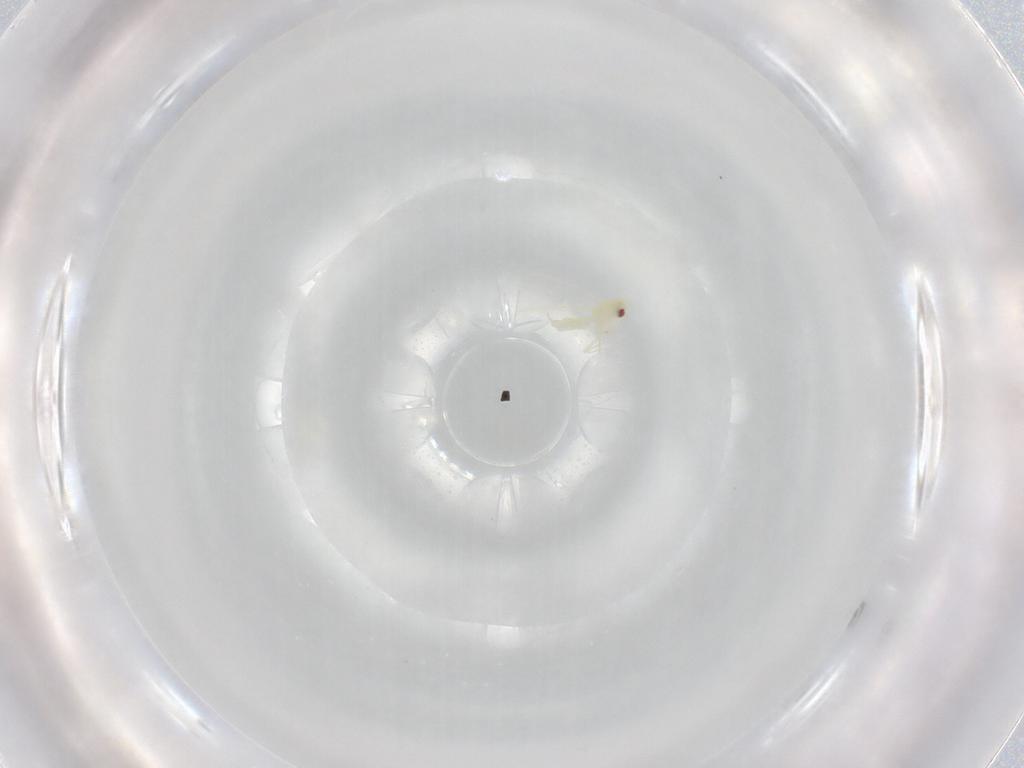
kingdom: Animalia
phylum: Arthropoda
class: Insecta
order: Hemiptera
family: Aleyrodidae
